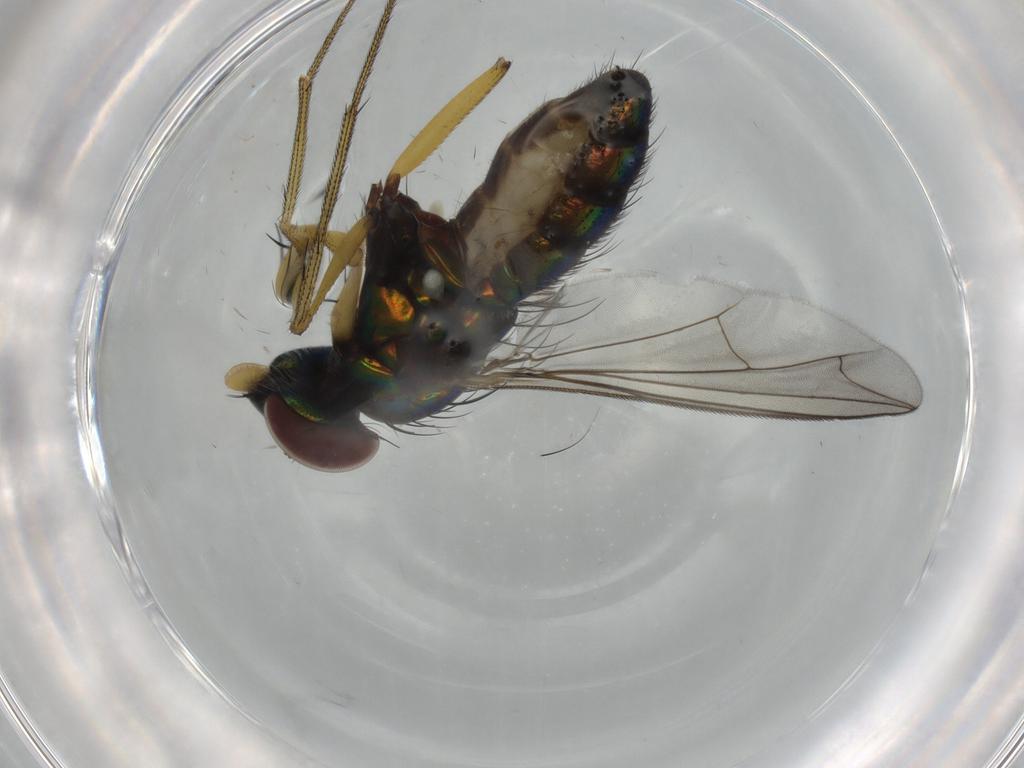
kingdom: Animalia
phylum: Arthropoda
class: Insecta
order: Diptera
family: Dolichopodidae
